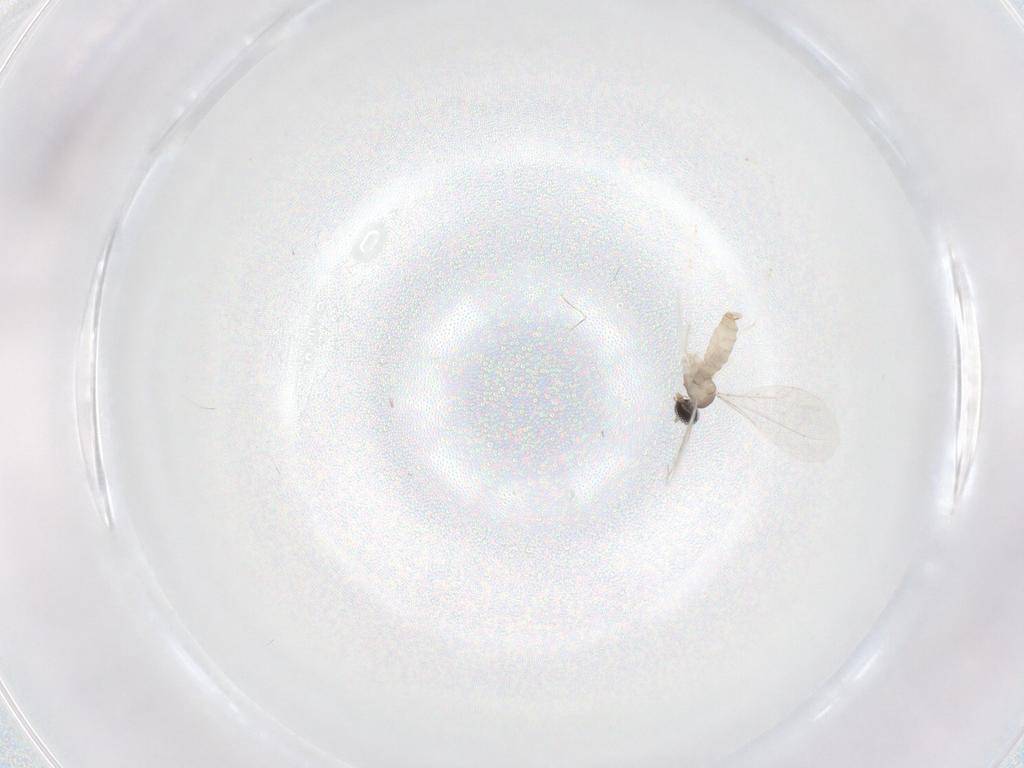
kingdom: Animalia
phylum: Arthropoda
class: Insecta
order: Diptera
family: Cecidomyiidae
